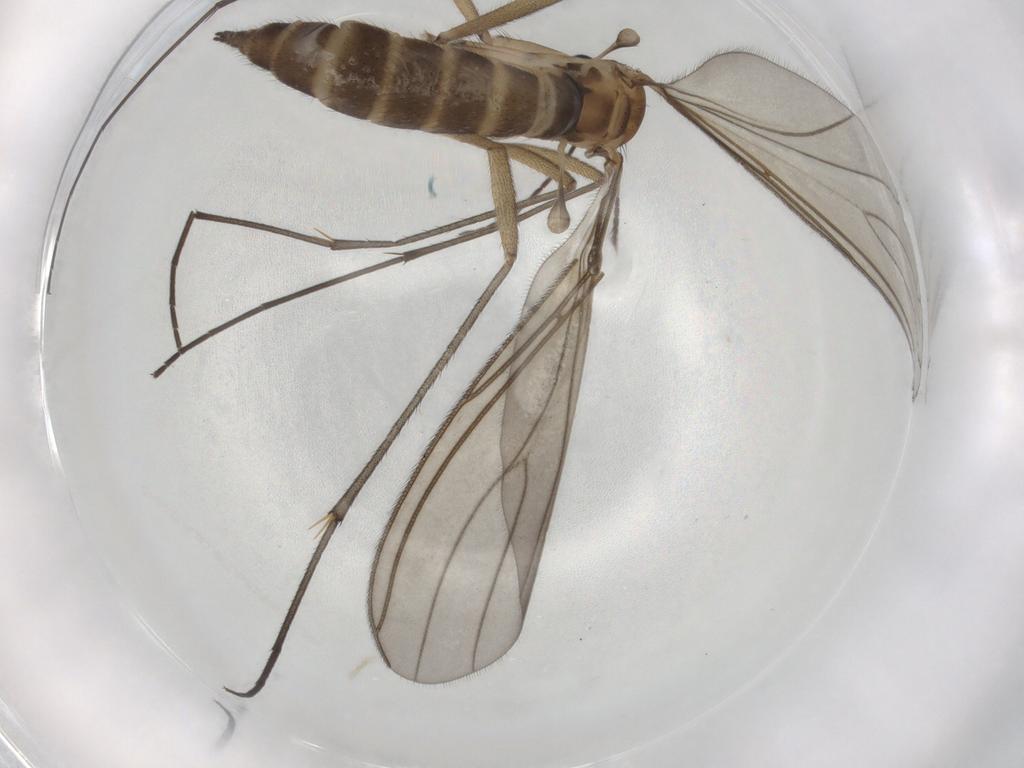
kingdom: Animalia
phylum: Arthropoda
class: Insecta
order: Diptera
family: Sciaridae
